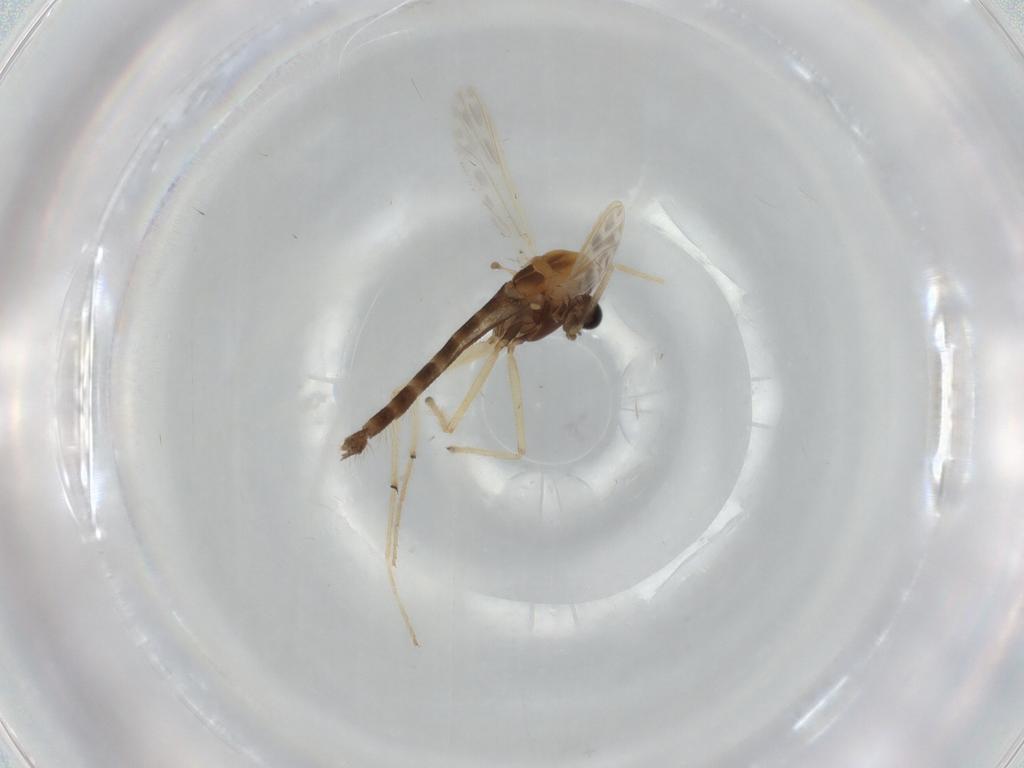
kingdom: Animalia
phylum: Arthropoda
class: Insecta
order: Diptera
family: Chironomidae
